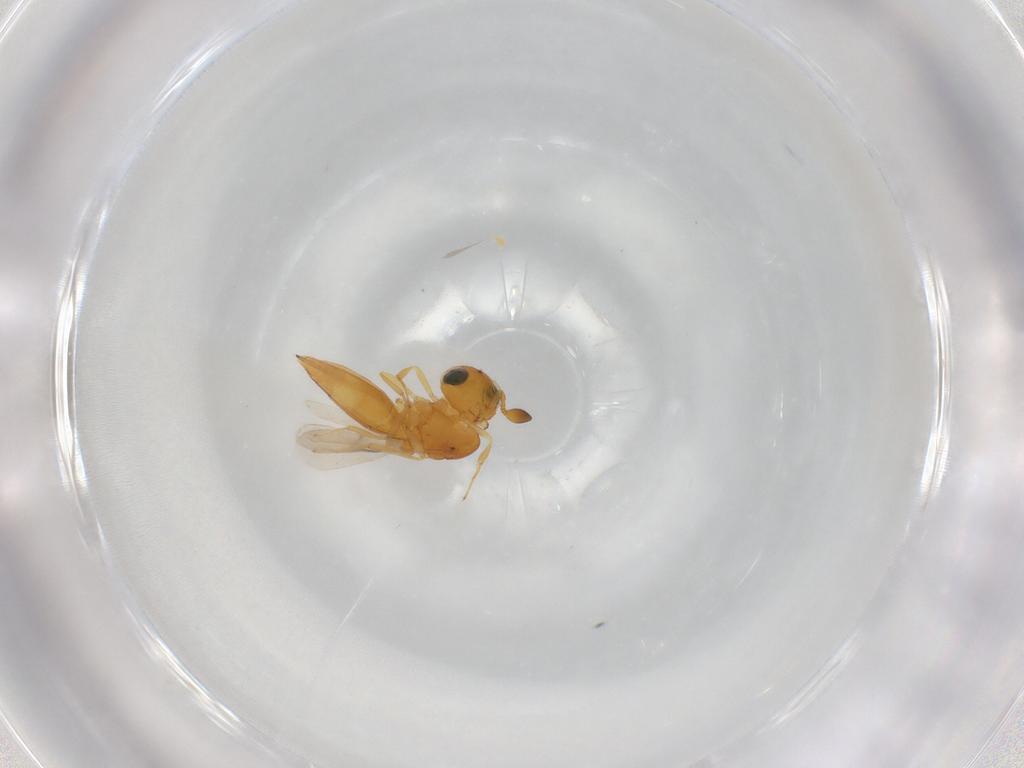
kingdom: Animalia
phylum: Arthropoda
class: Insecta
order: Hymenoptera
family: Scelionidae
